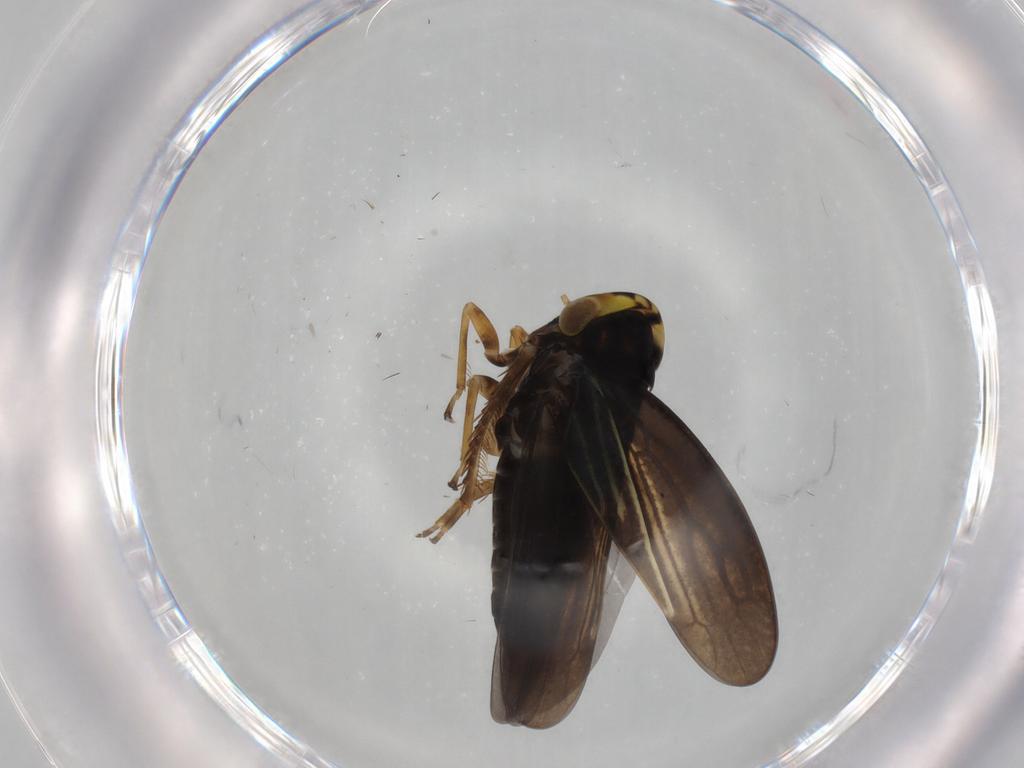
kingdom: Animalia
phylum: Arthropoda
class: Insecta
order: Hemiptera
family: Cicadellidae
